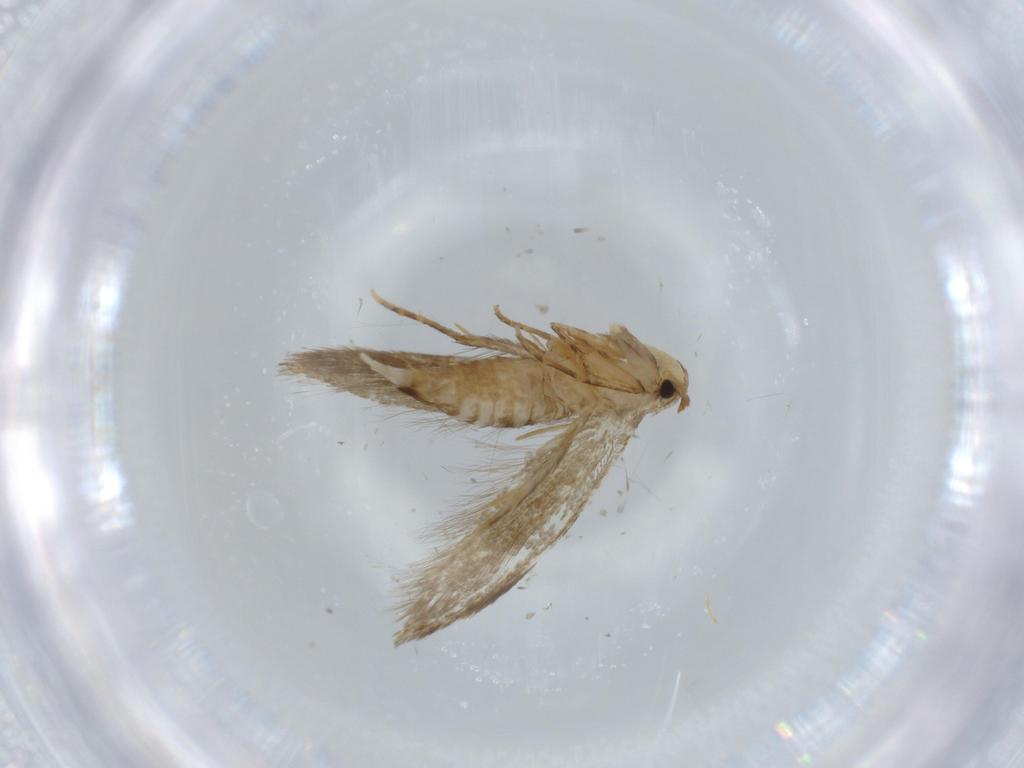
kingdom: Animalia
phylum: Arthropoda
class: Insecta
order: Lepidoptera
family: Tineidae
